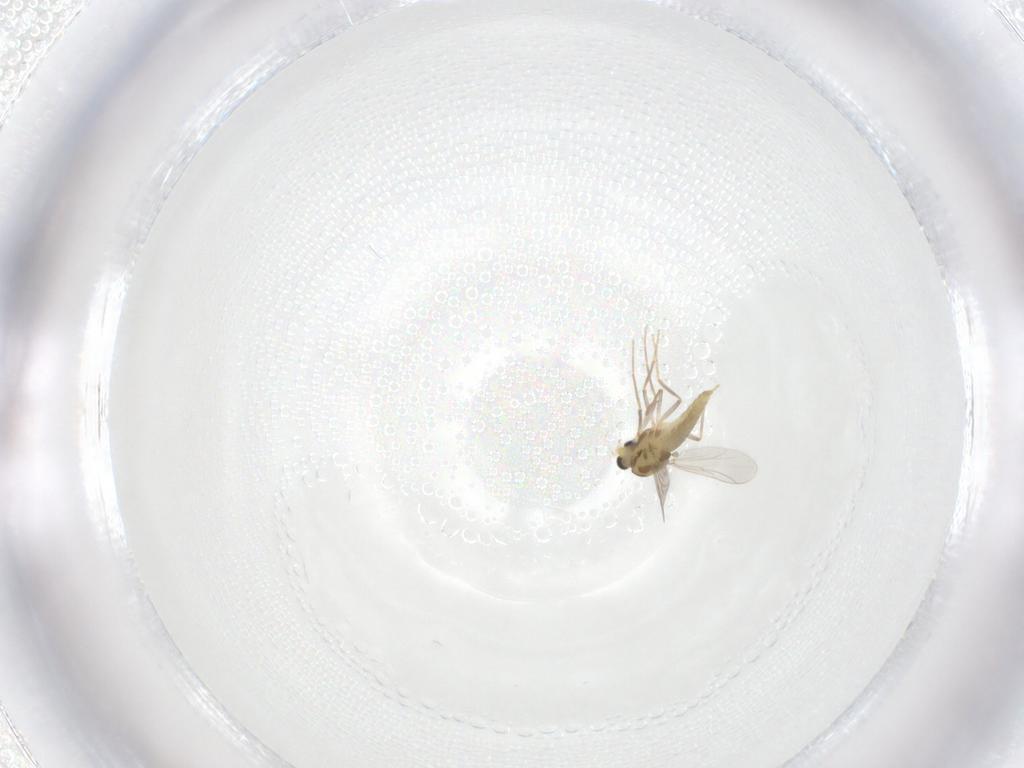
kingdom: Animalia
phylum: Arthropoda
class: Insecta
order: Diptera
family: Chironomidae
